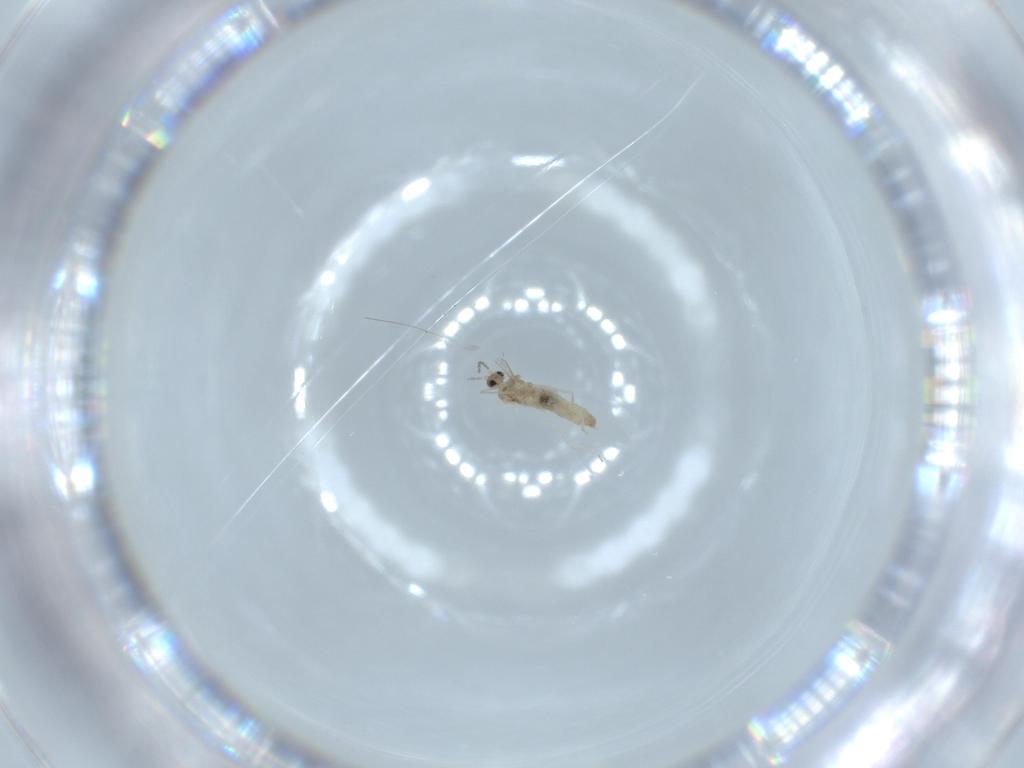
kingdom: Animalia
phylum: Arthropoda
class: Insecta
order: Diptera
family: Cecidomyiidae
